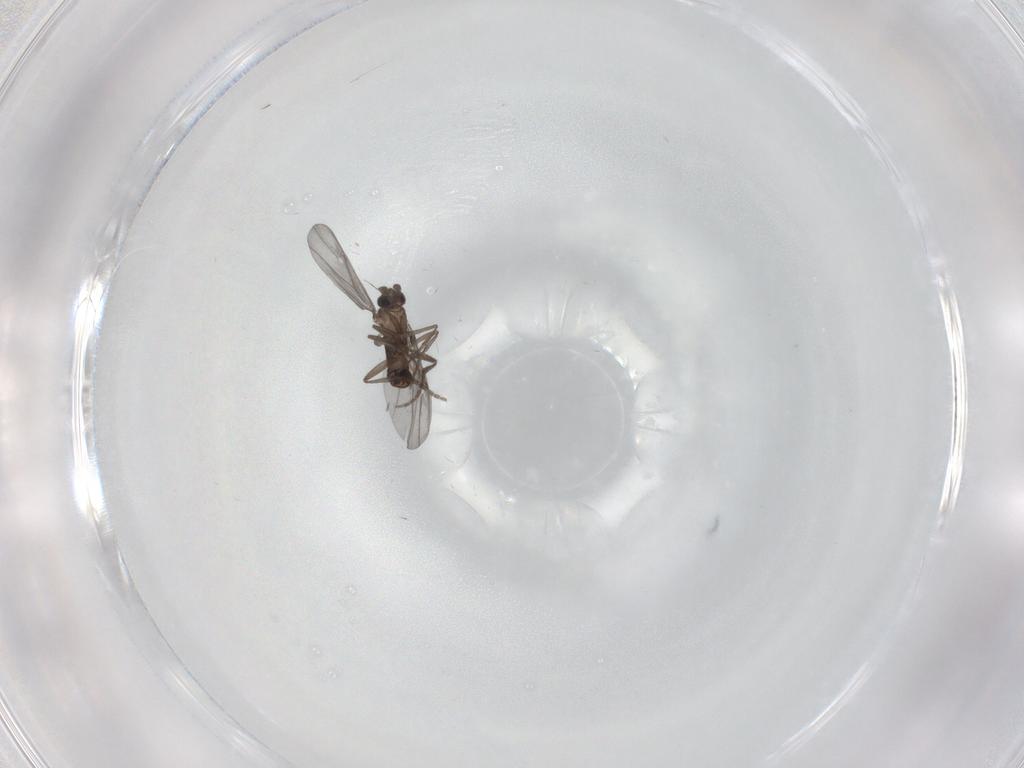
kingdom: Animalia
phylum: Arthropoda
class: Insecta
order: Diptera
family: Phoridae
